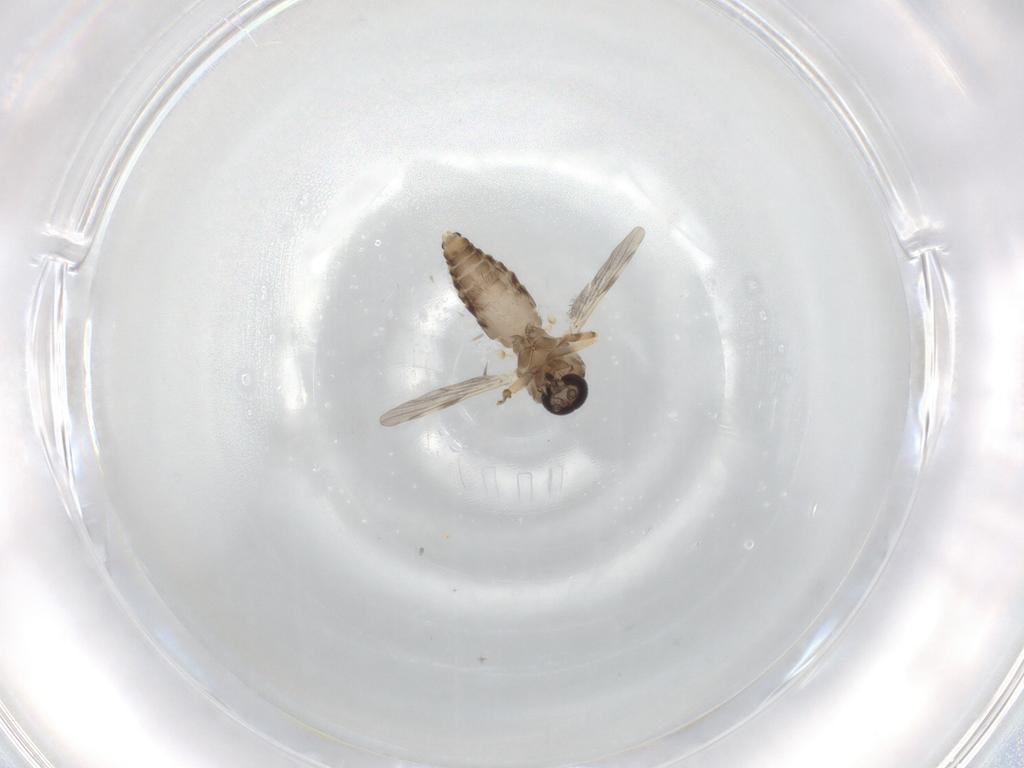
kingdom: Animalia
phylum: Arthropoda
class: Insecta
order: Diptera
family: Ceratopogonidae
